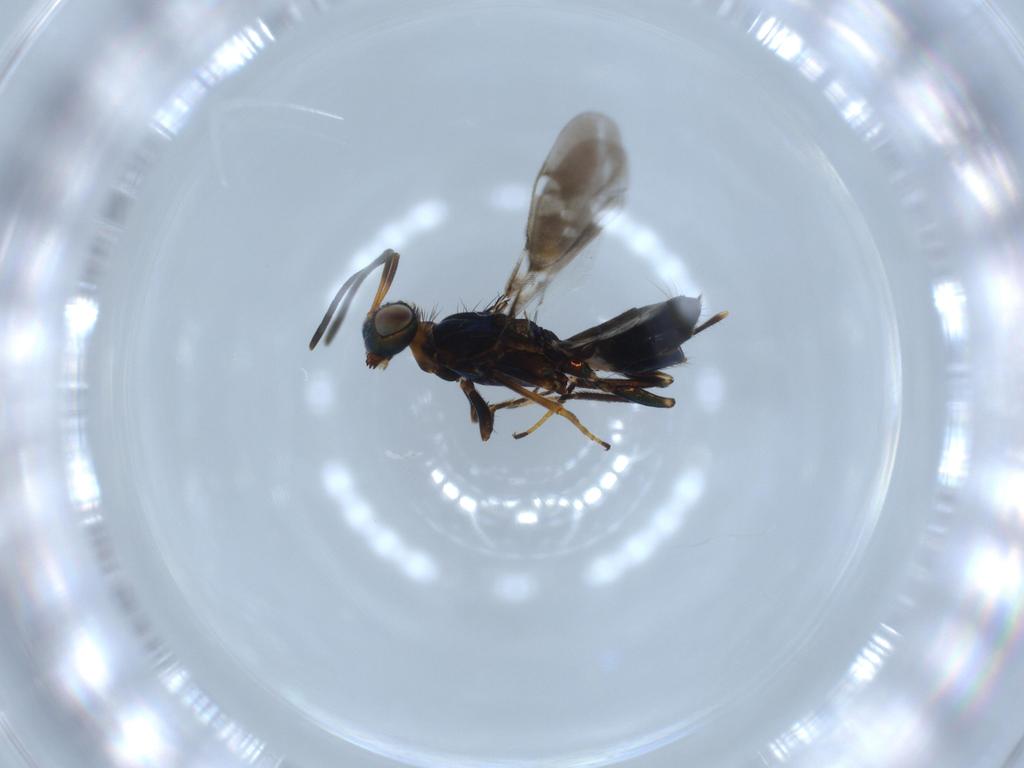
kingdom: Animalia
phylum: Arthropoda
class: Insecta
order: Hymenoptera
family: Eupelmidae
